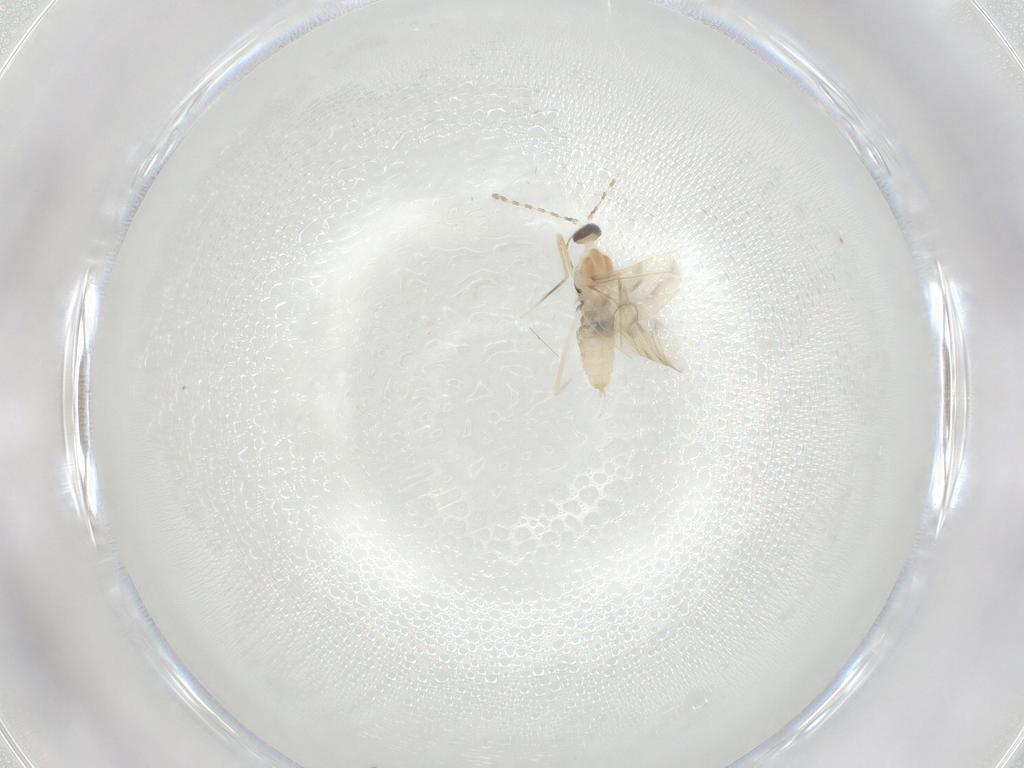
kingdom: Animalia
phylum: Arthropoda
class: Insecta
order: Diptera
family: Cecidomyiidae
